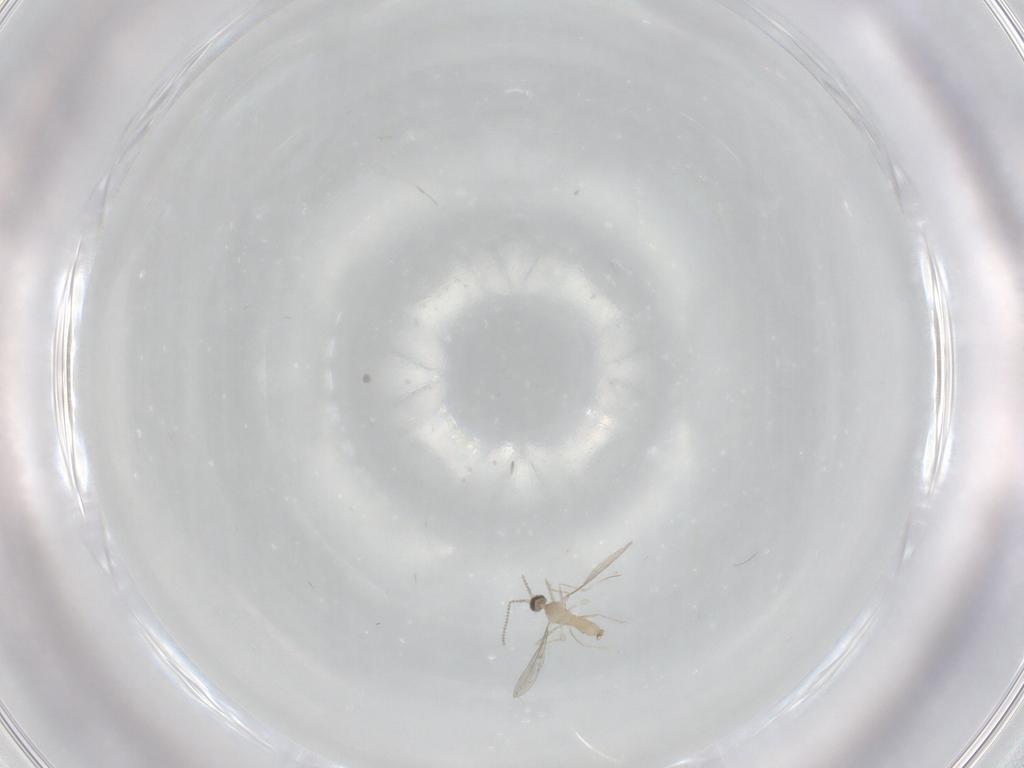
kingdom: Animalia
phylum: Arthropoda
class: Insecta
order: Diptera
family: Cecidomyiidae
